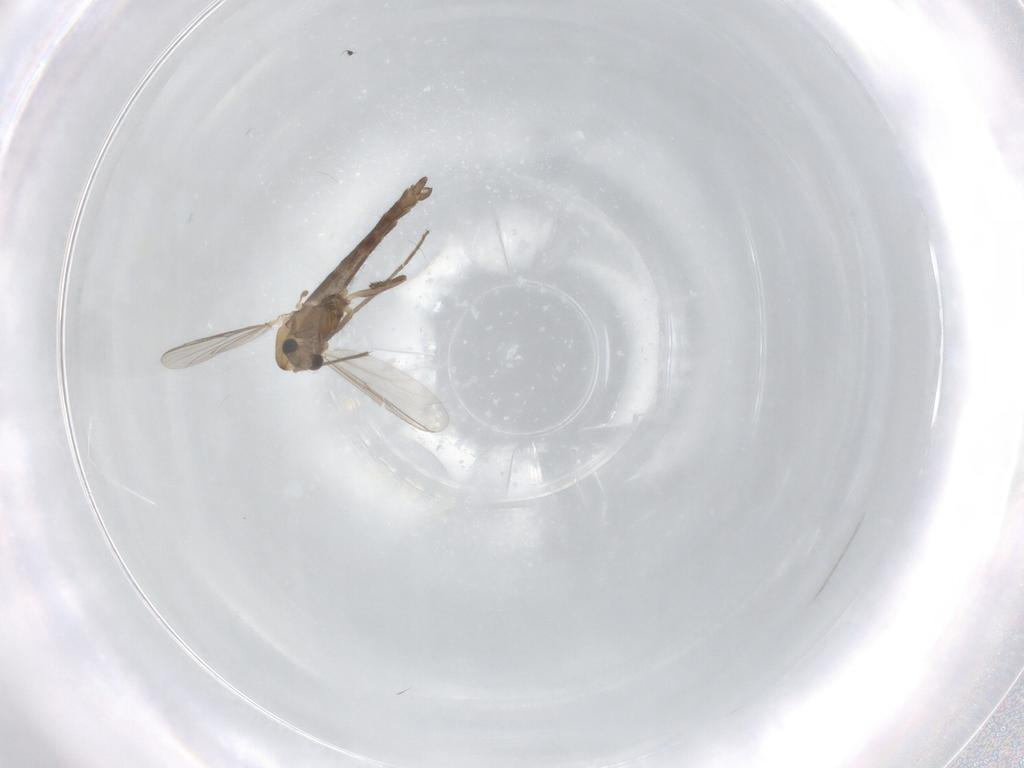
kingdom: Animalia
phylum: Arthropoda
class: Insecta
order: Diptera
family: Chironomidae
